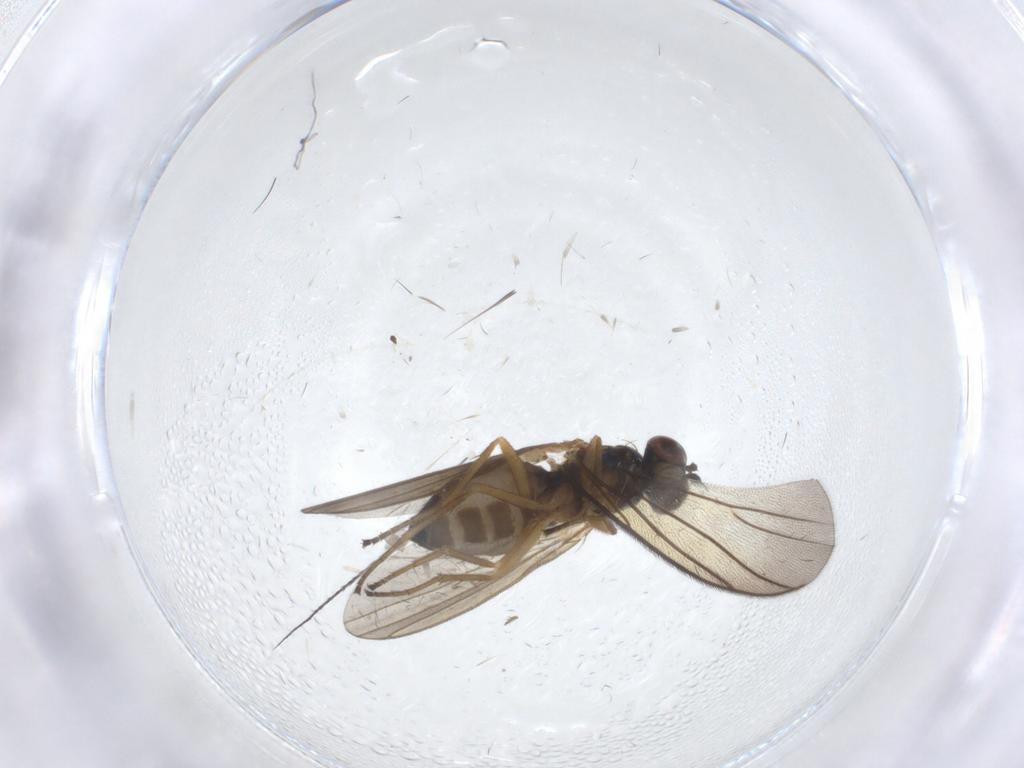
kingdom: Animalia
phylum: Arthropoda
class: Insecta
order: Diptera
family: Dolichopodidae
